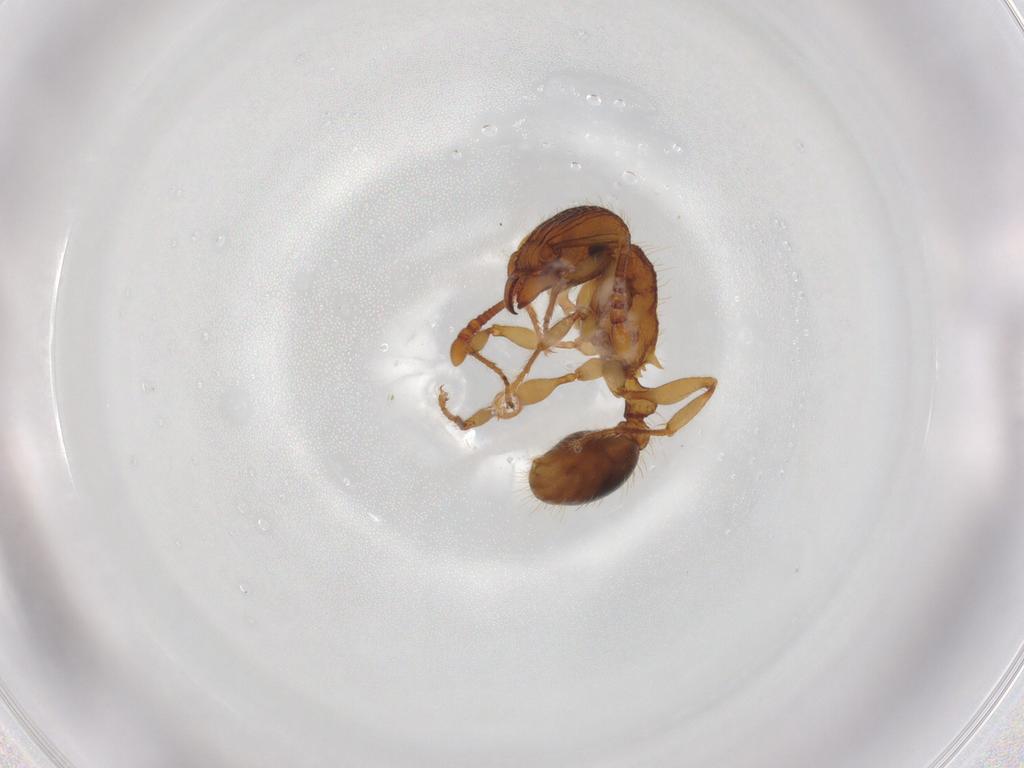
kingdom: Animalia
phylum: Arthropoda
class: Insecta
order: Hymenoptera
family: Formicidae
